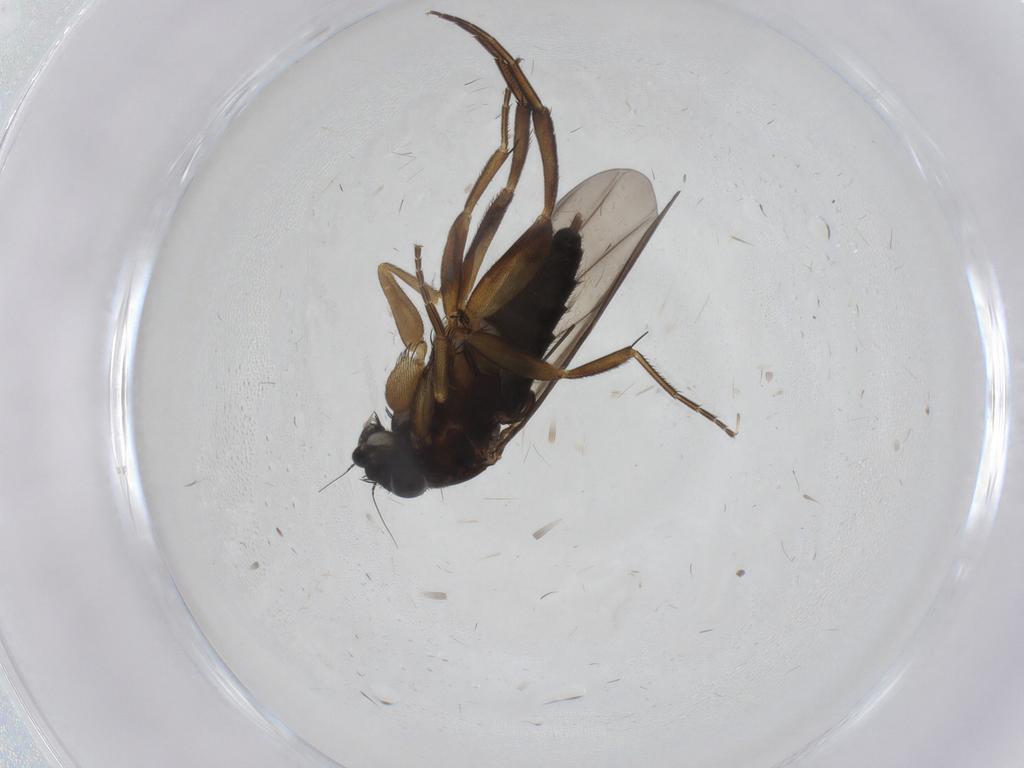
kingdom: Animalia
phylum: Arthropoda
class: Insecta
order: Diptera
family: Phoridae
